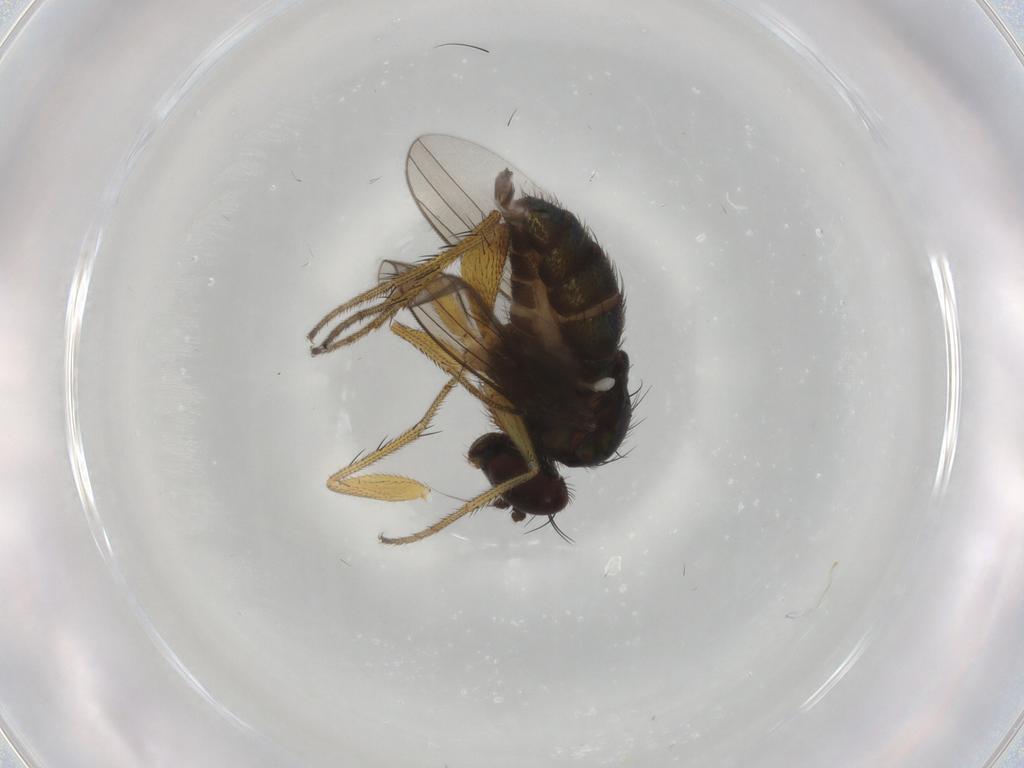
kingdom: Animalia
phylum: Arthropoda
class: Insecta
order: Diptera
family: Dolichopodidae
